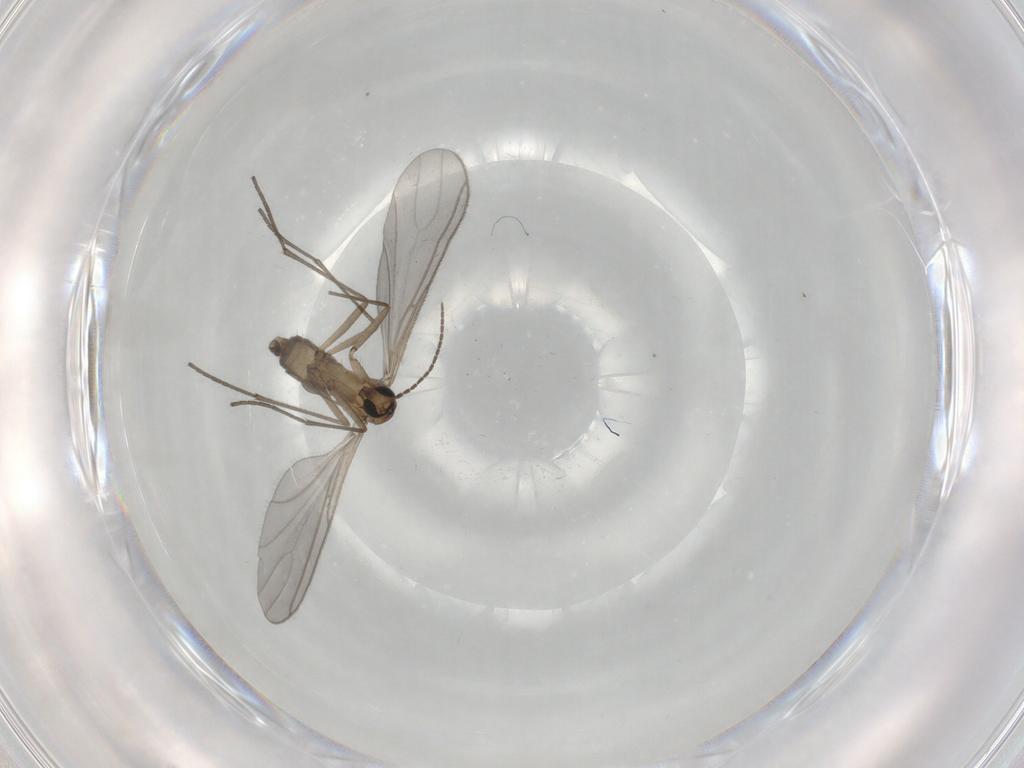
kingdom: Animalia
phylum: Arthropoda
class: Insecta
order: Diptera
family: Sciaridae
